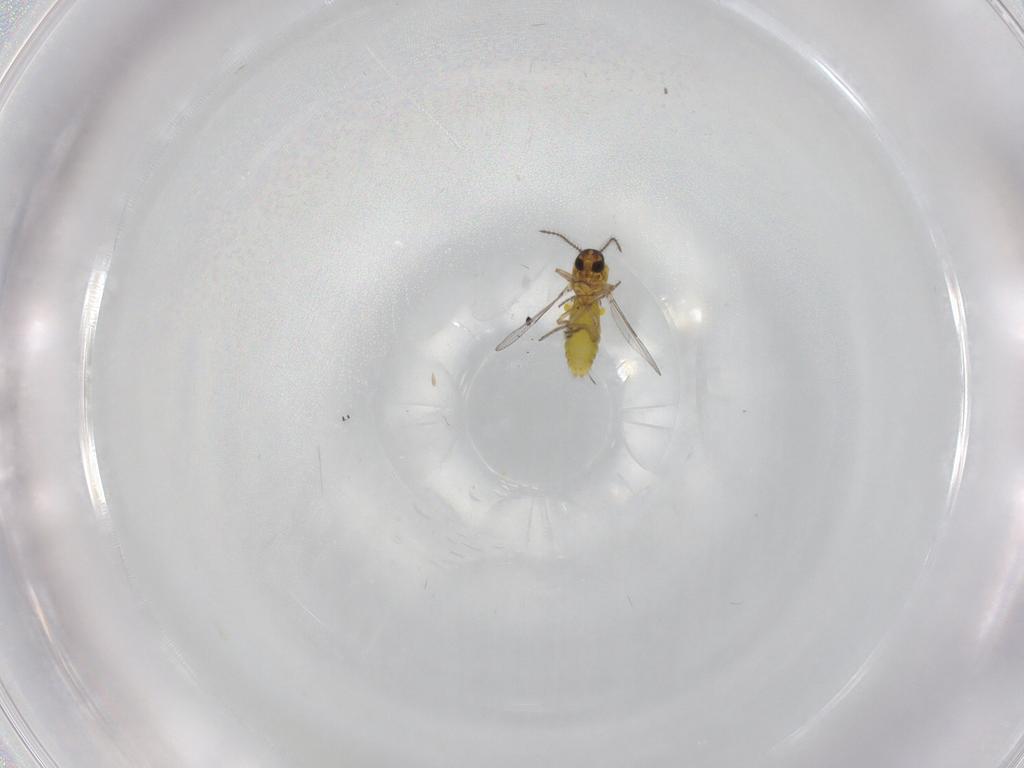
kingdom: Animalia
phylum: Arthropoda
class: Insecta
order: Diptera
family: Ceratopogonidae
